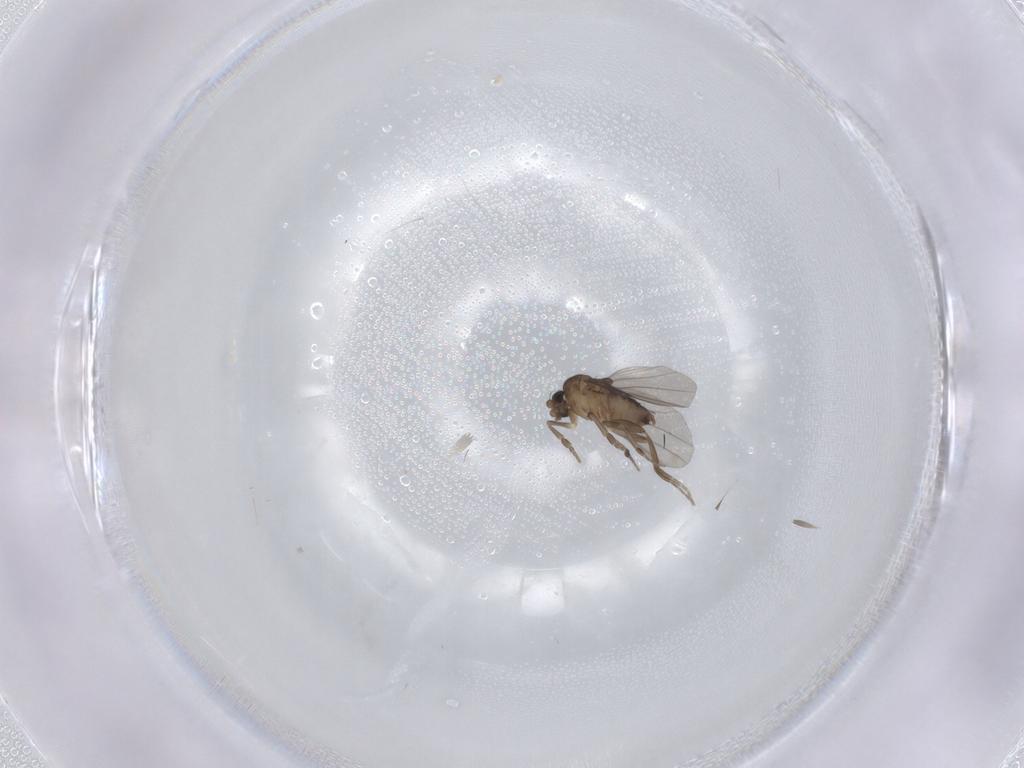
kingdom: Animalia
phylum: Arthropoda
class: Insecta
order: Diptera
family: Phoridae
